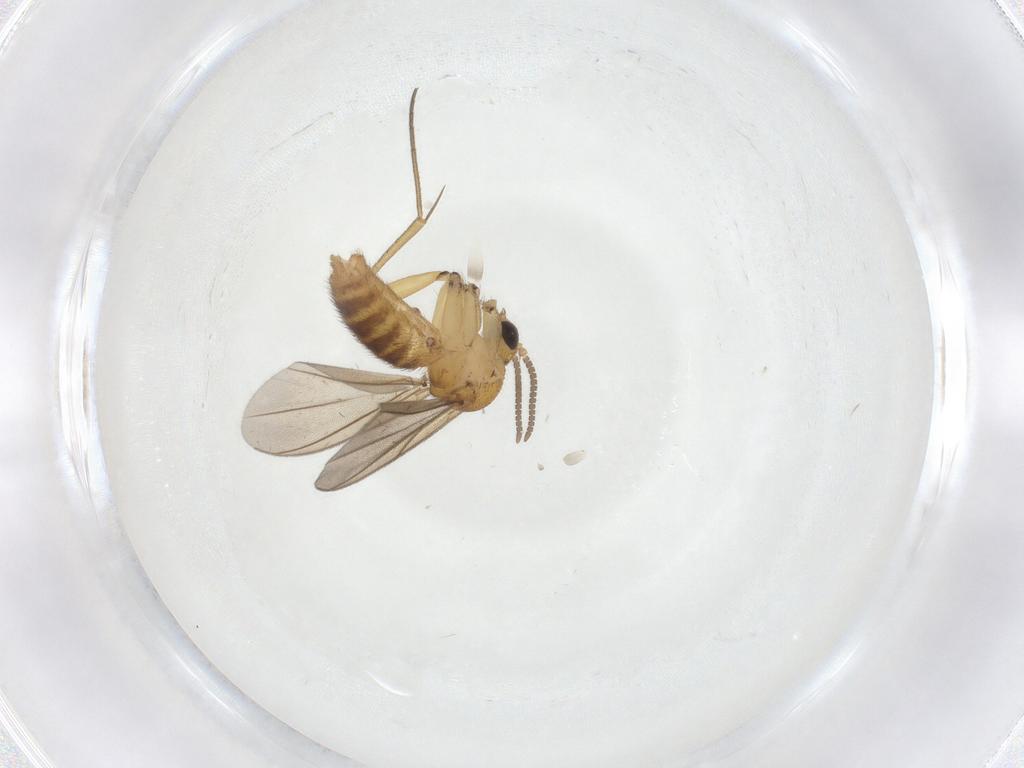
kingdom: Animalia
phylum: Arthropoda
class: Insecta
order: Diptera
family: Mycetophilidae
